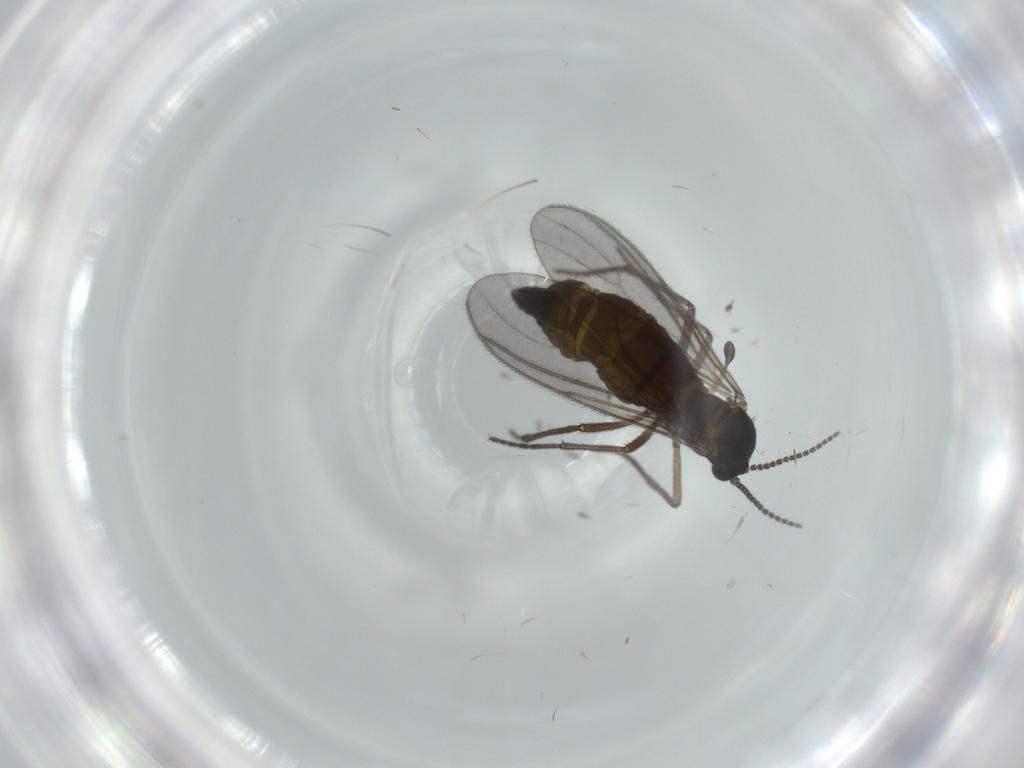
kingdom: Animalia
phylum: Arthropoda
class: Insecta
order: Diptera
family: Sciaridae
